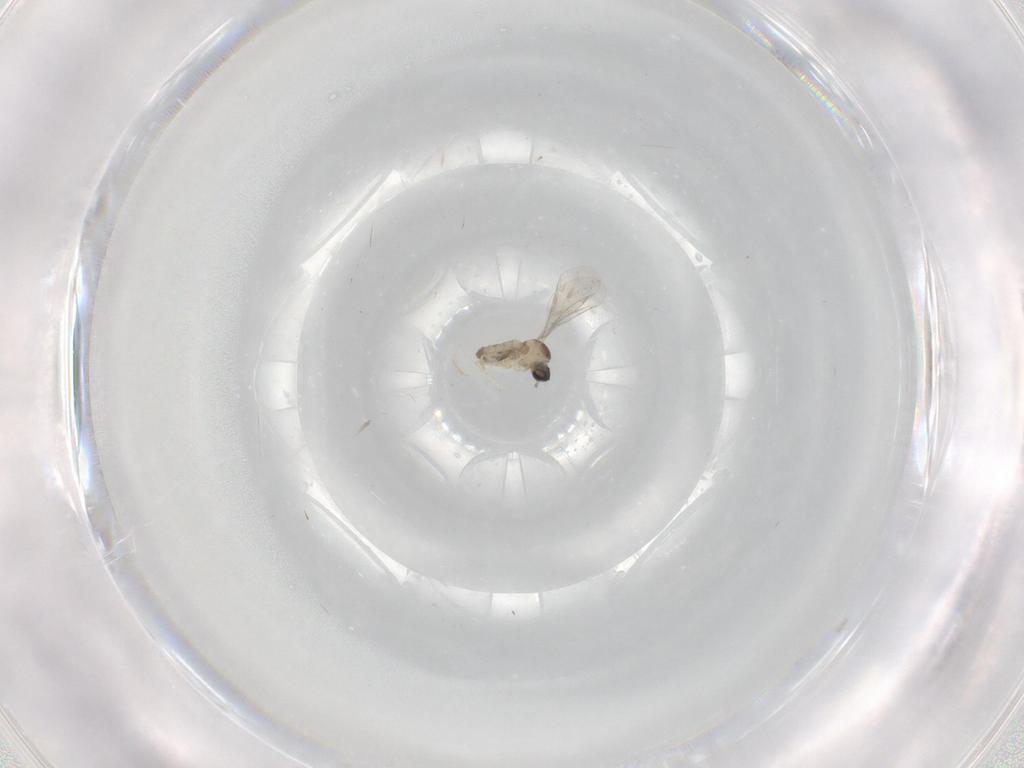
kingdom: Animalia
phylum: Arthropoda
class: Insecta
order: Diptera
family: Cecidomyiidae
